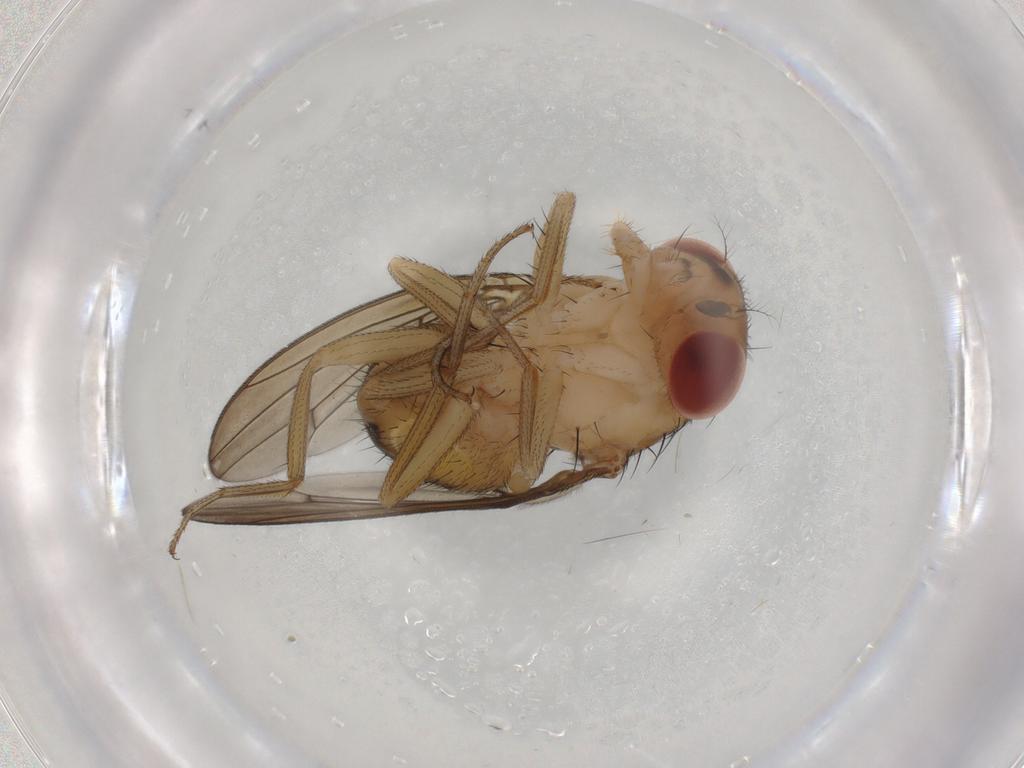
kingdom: Animalia
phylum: Arthropoda
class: Insecta
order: Diptera
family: Drosophilidae
